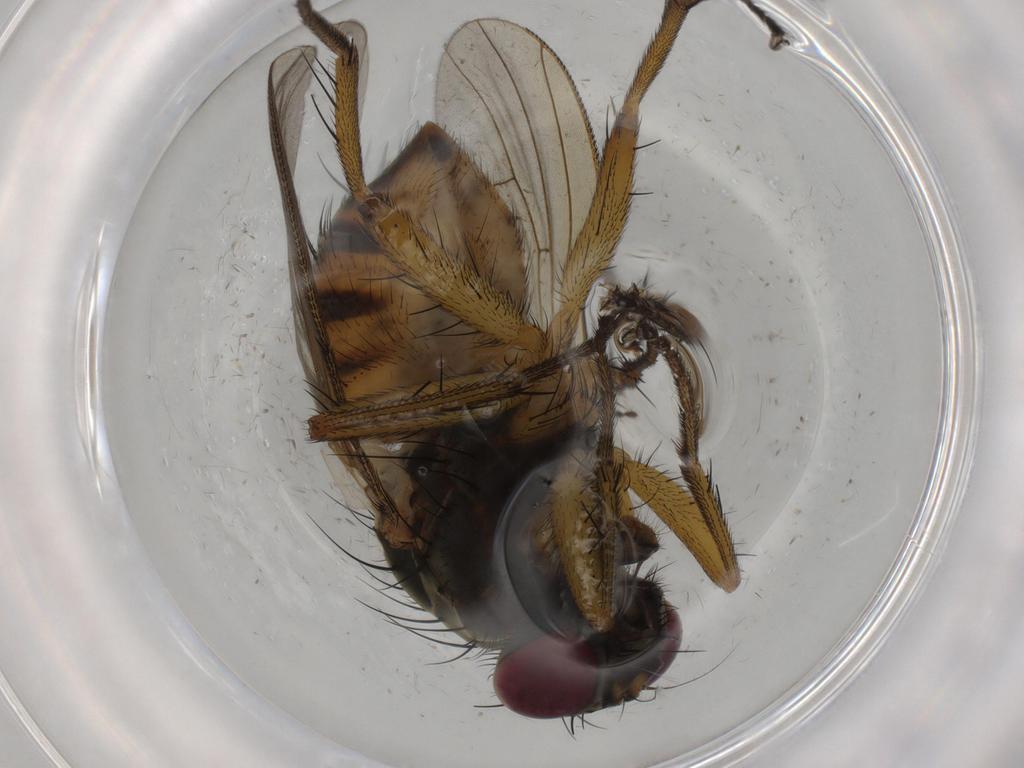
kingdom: Animalia
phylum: Arthropoda
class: Insecta
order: Diptera
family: Muscidae
